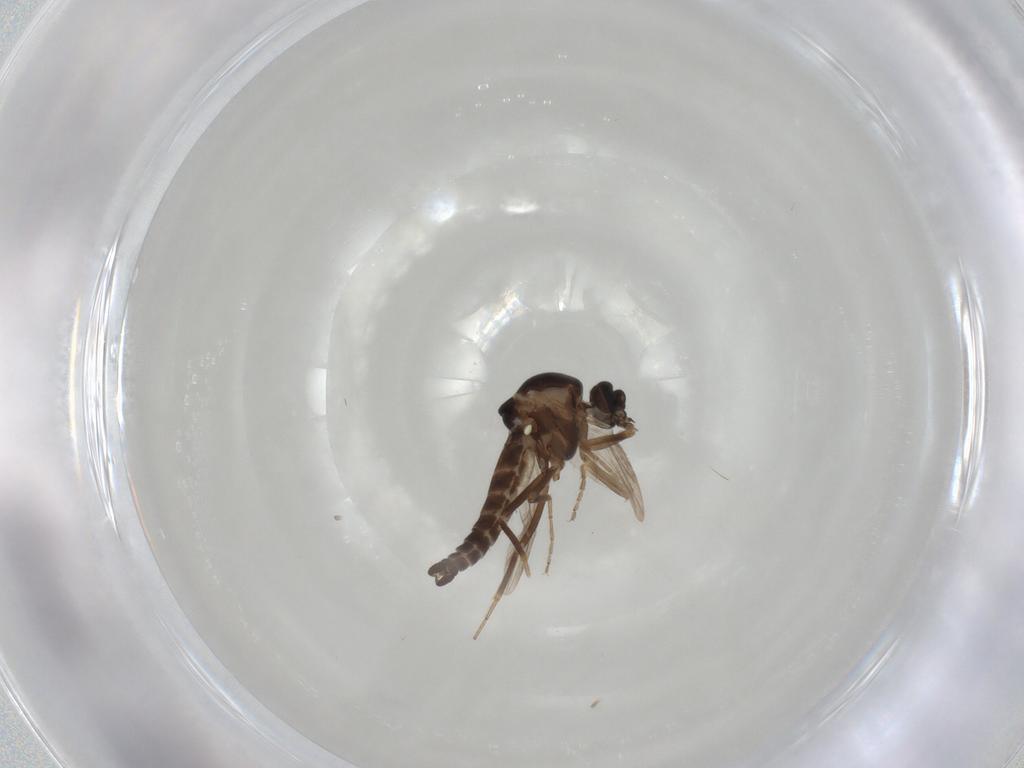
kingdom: Animalia
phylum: Arthropoda
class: Insecta
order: Diptera
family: Ceratopogonidae
